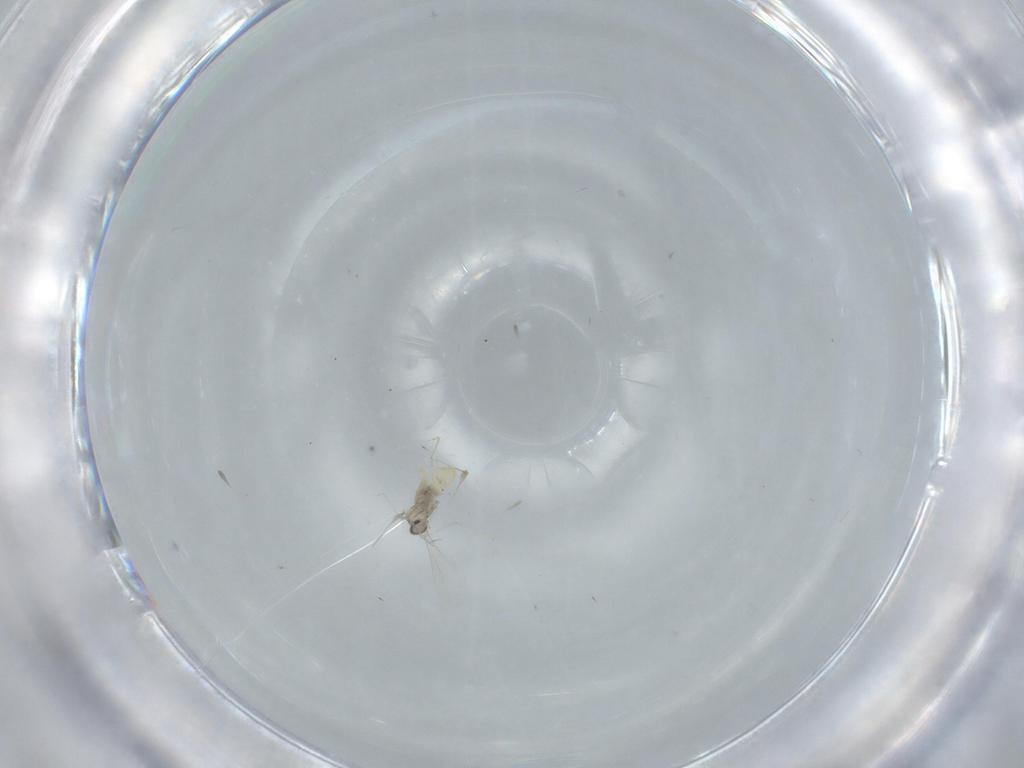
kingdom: Animalia
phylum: Arthropoda
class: Insecta
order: Diptera
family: Cecidomyiidae
